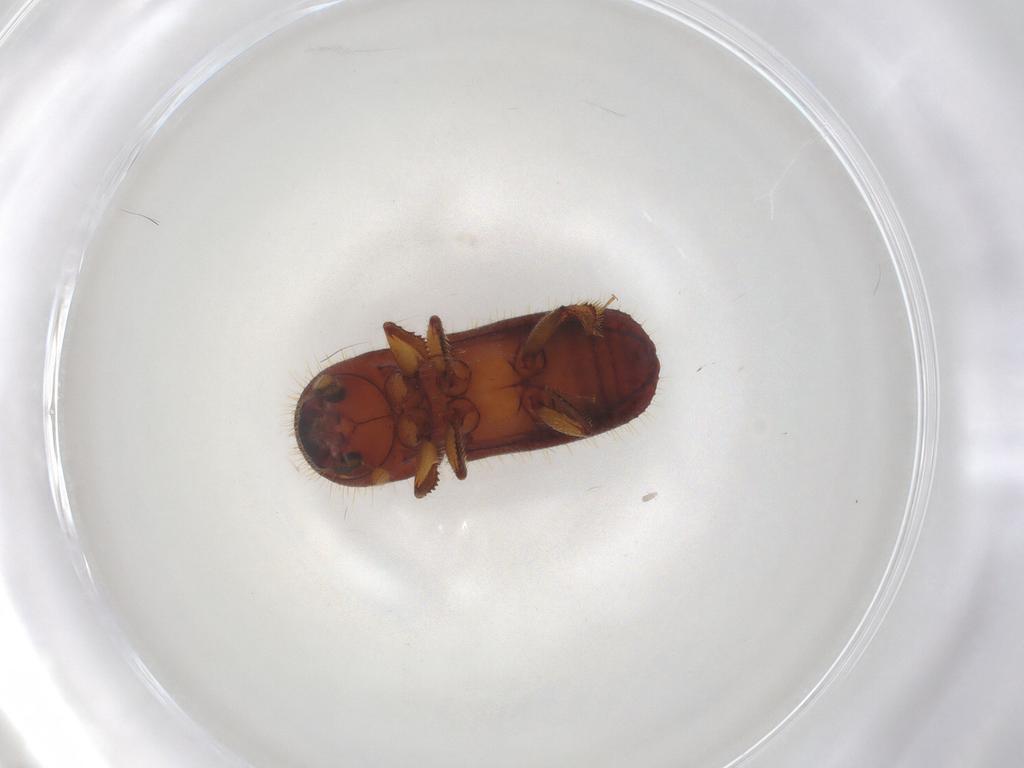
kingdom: Animalia
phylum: Arthropoda
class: Insecta
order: Coleoptera
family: Curculionidae
